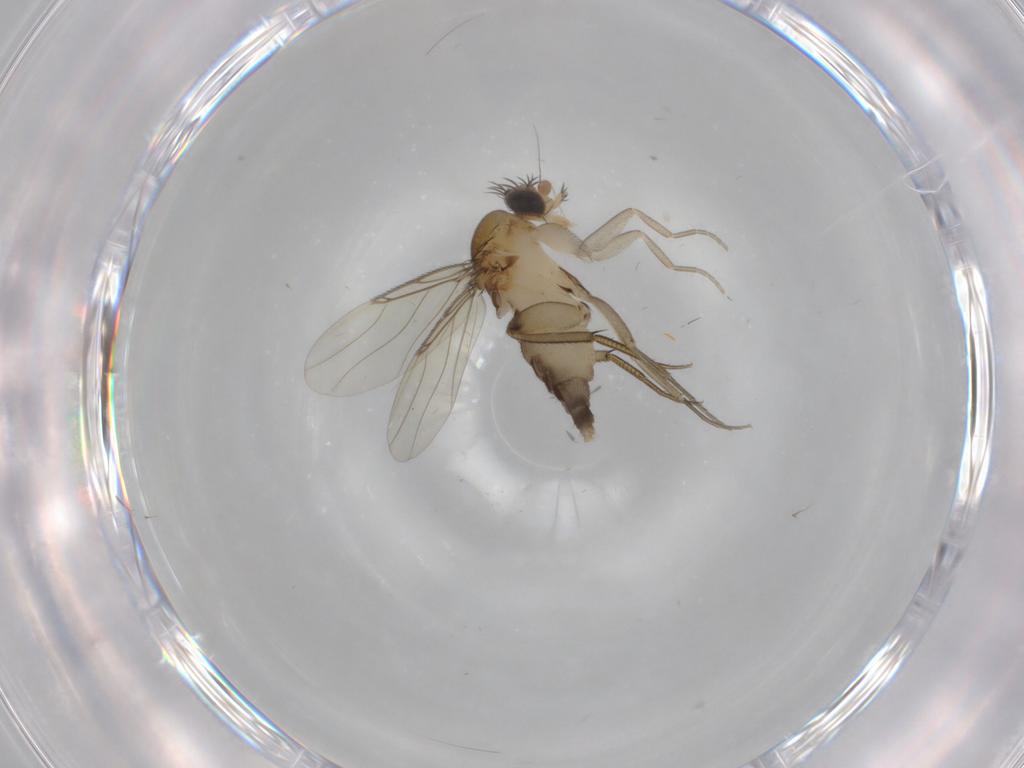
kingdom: Animalia
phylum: Arthropoda
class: Insecta
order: Diptera
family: Phoridae
